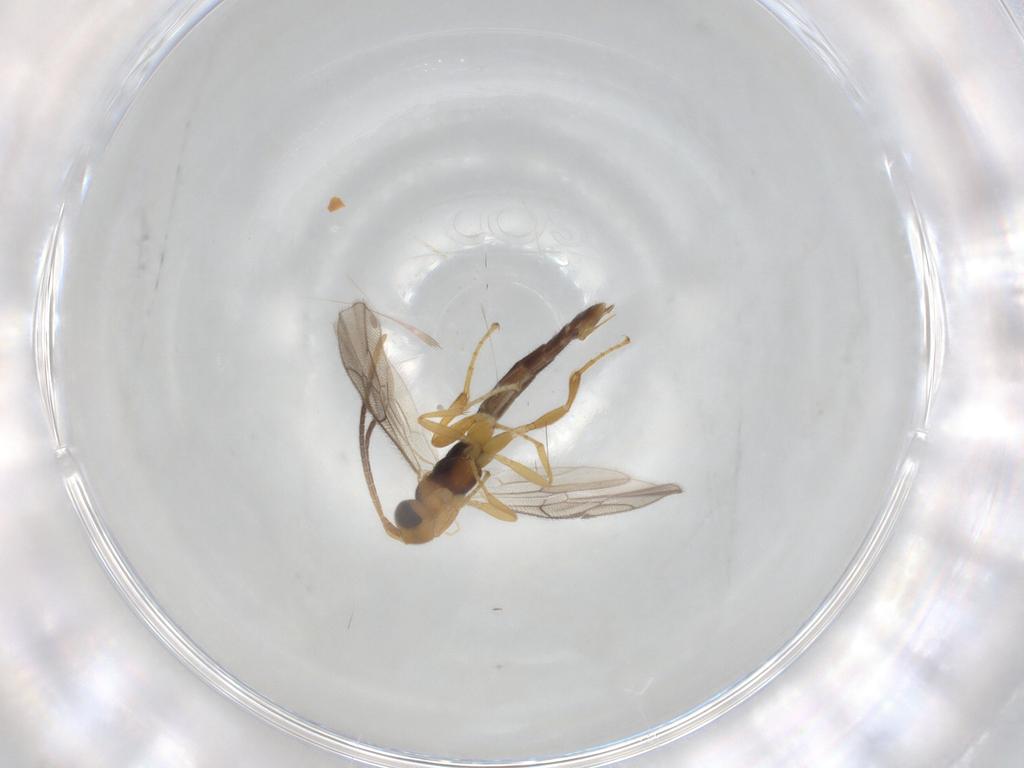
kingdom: Animalia
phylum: Arthropoda
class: Insecta
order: Hymenoptera
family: Ichneumonidae
